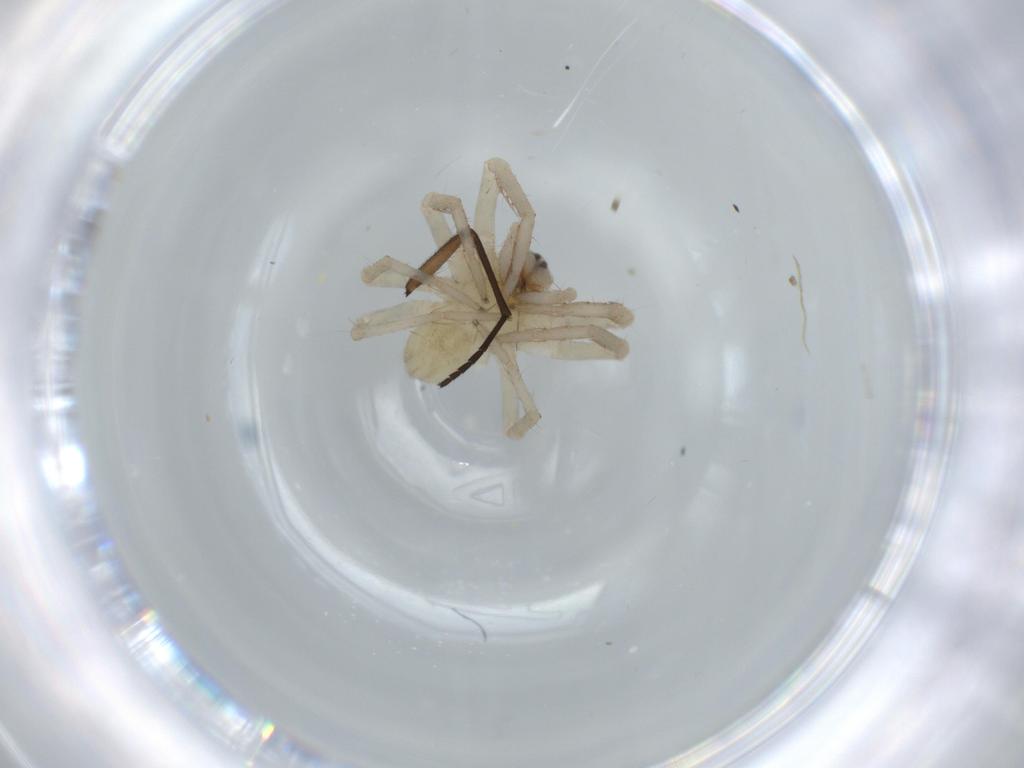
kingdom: Animalia
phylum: Arthropoda
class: Arachnida
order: Araneae
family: Ctenidae
